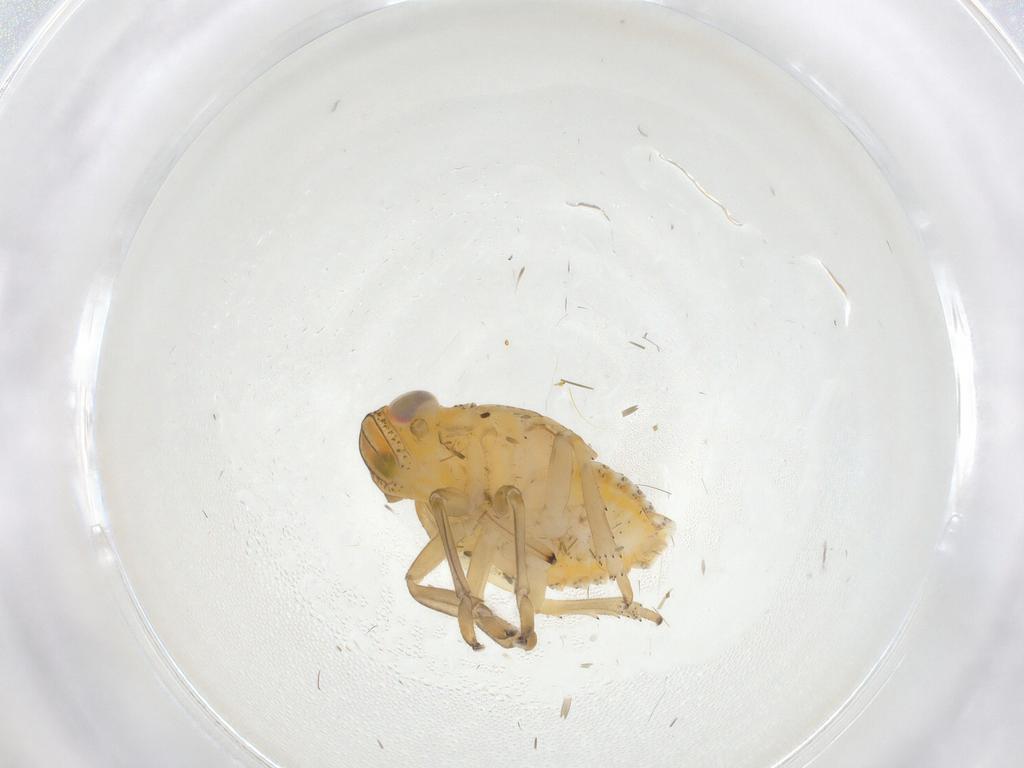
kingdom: Animalia
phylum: Arthropoda
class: Insecta
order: Hemiptera
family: Issidae
